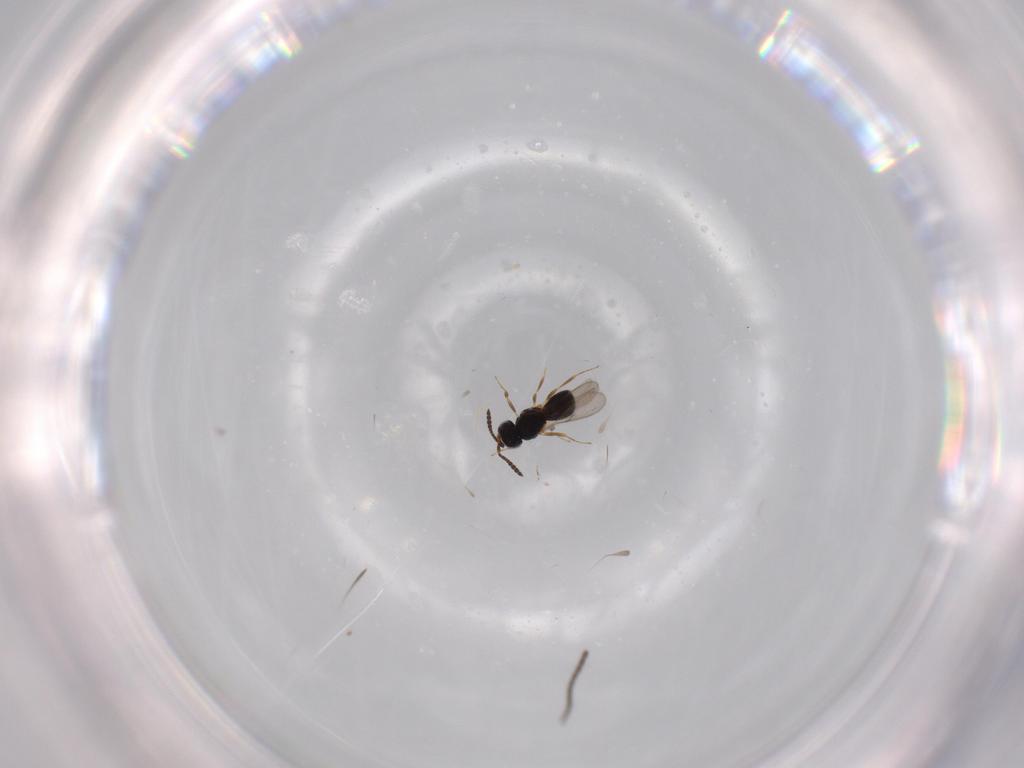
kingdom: Animalia
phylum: Arthropoda
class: Insecta
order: Hymenoptera
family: Scelionidae
